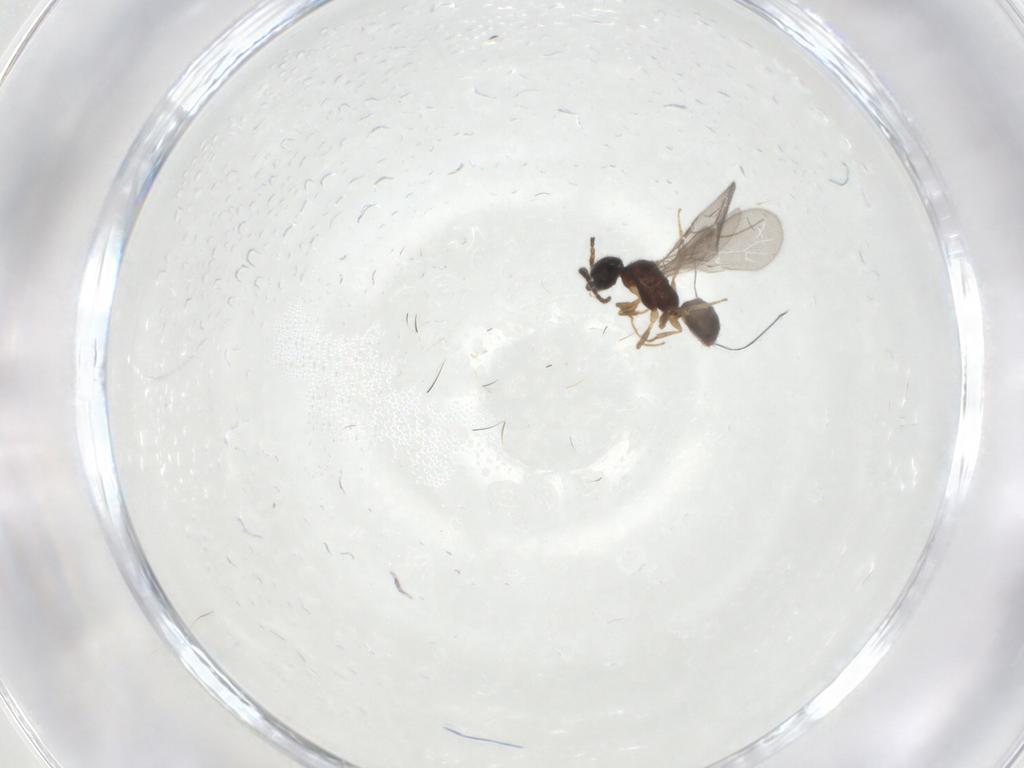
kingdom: Animalia
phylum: Arthropoda
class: Insecta
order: Hymenoptera
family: Bethylidae
